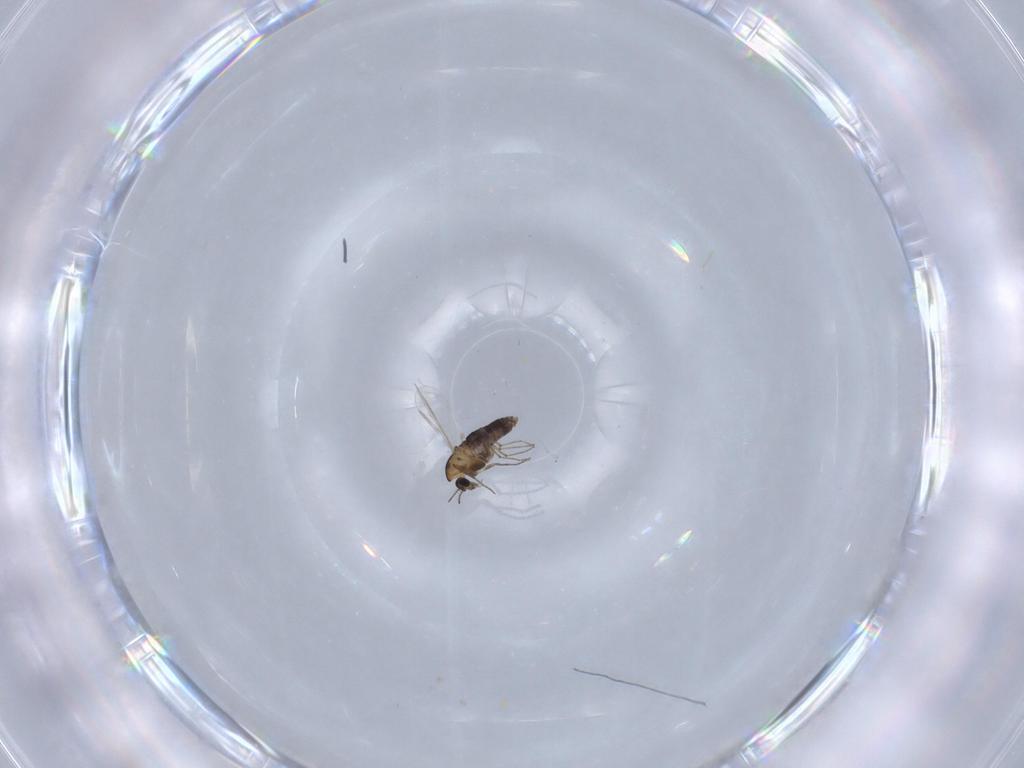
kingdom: Animalia
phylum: Arthropoda
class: Insecta
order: Diptera
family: Chironomidae
